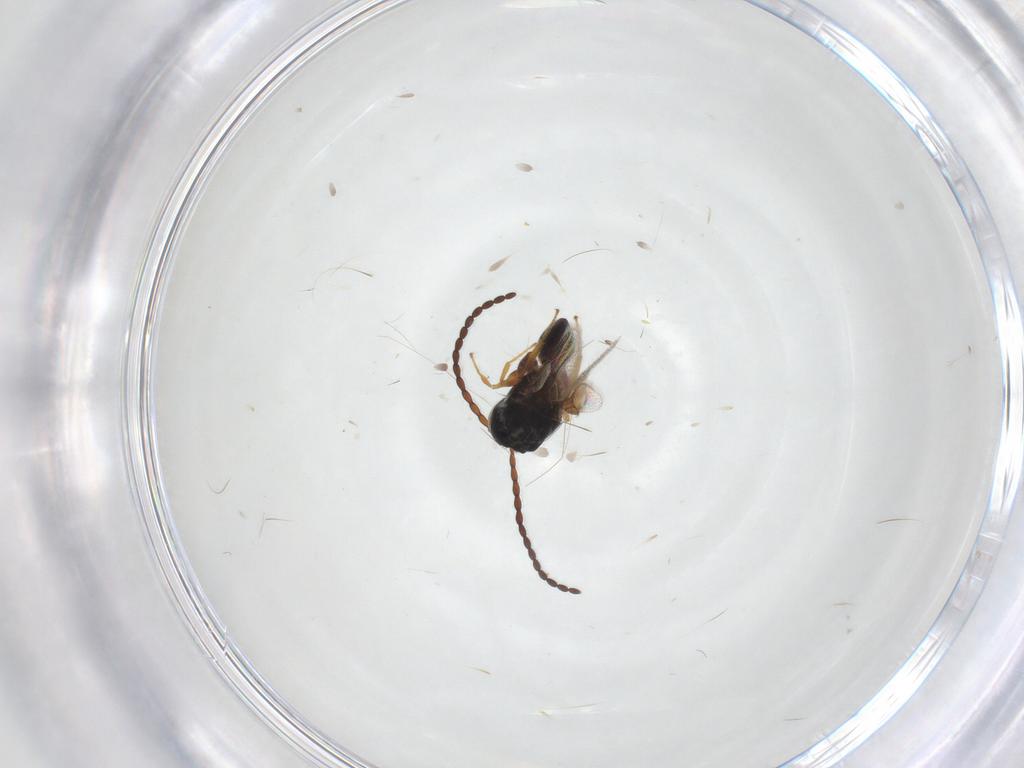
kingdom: Animalia
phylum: Arthropoda
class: Insecta
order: Hymenoptera
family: Figitidae
